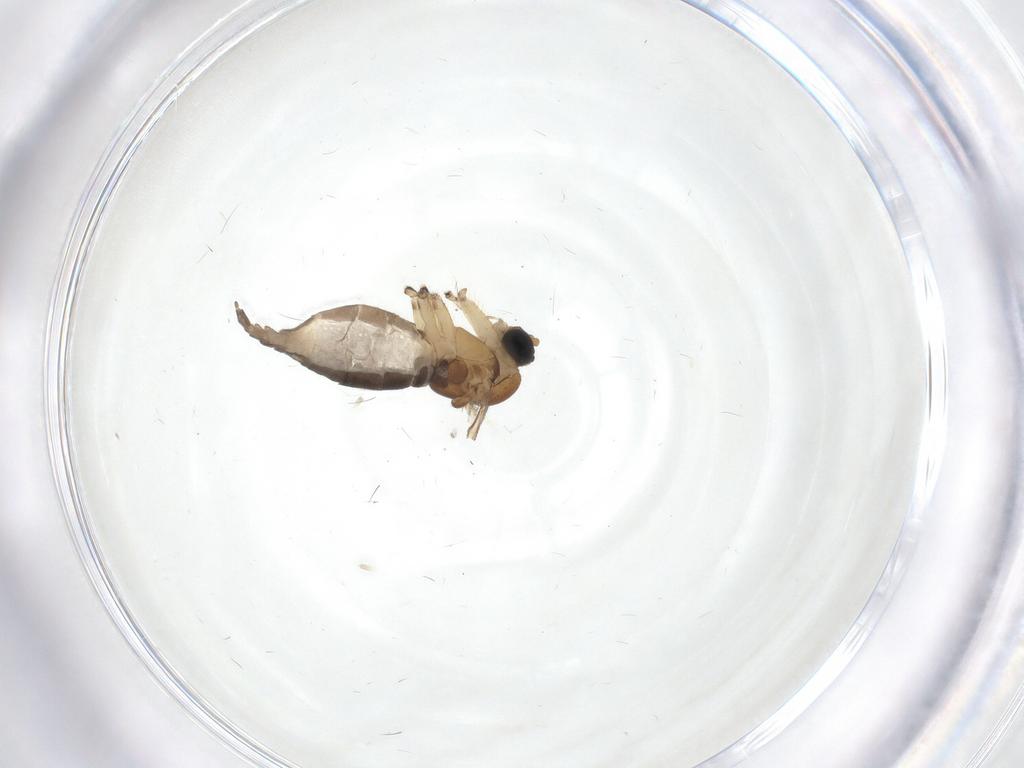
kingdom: Animalia
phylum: Arthropoda
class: Insecta
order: Diptera
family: Sciaridae
